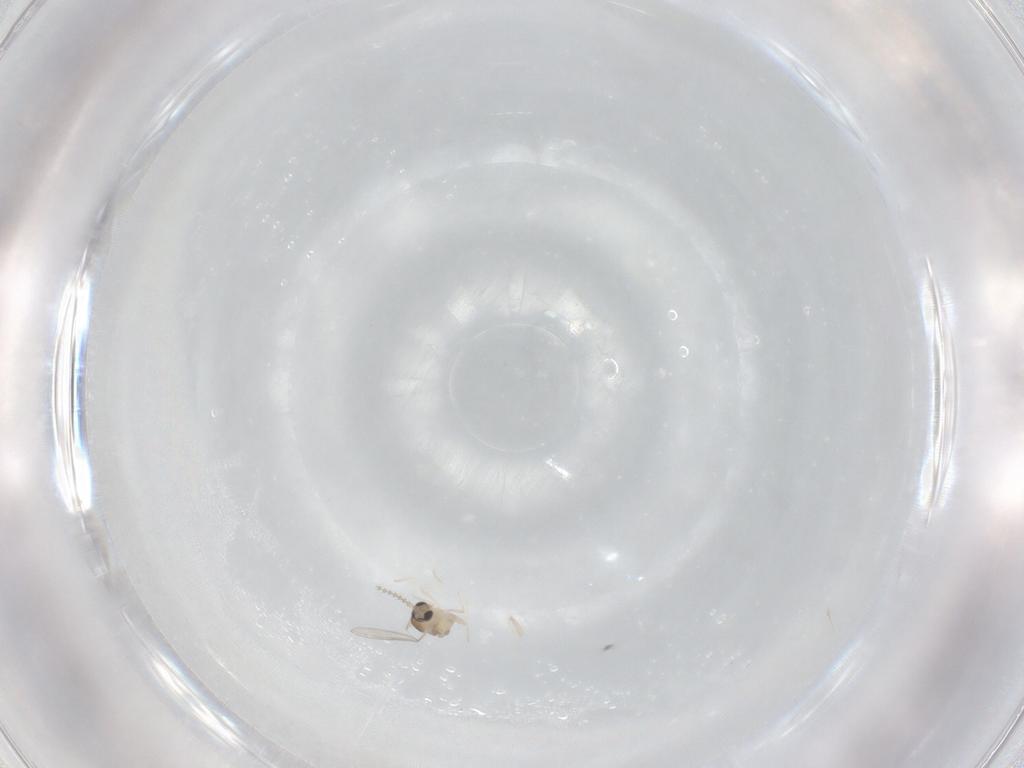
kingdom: Animalia
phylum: Arthropoda
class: Insecta
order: Diptera
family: Cecidomyiidae
